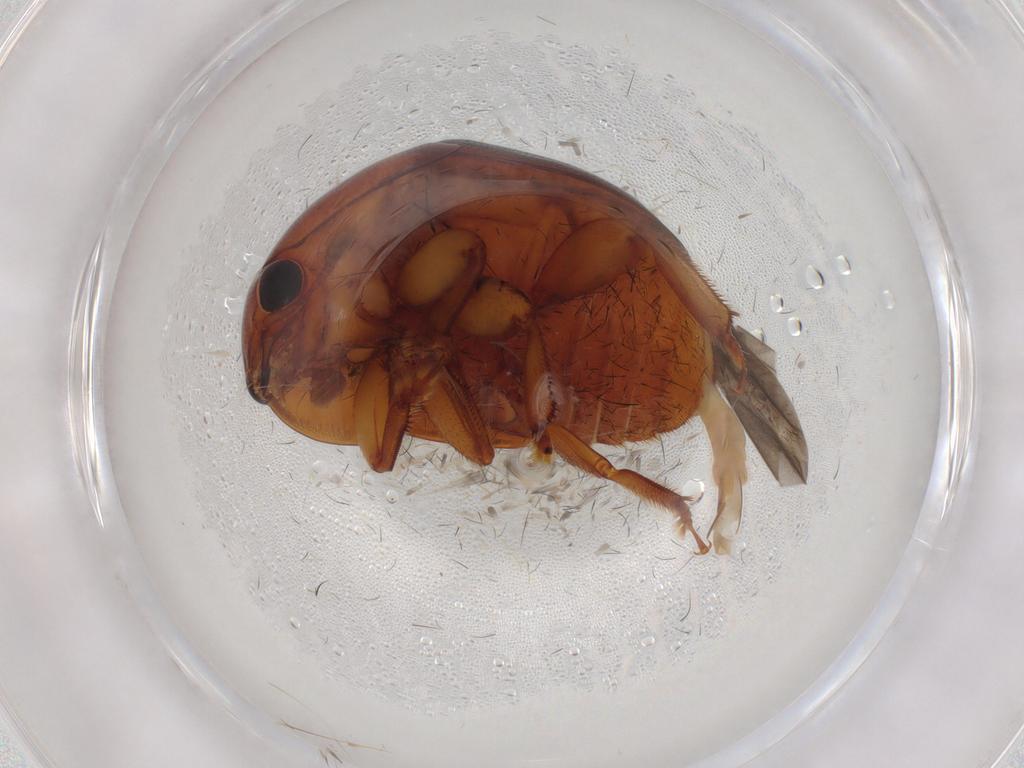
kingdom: Animalia
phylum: Arthropoda
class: Insecta
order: Coleoptera
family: Nitidulidae
